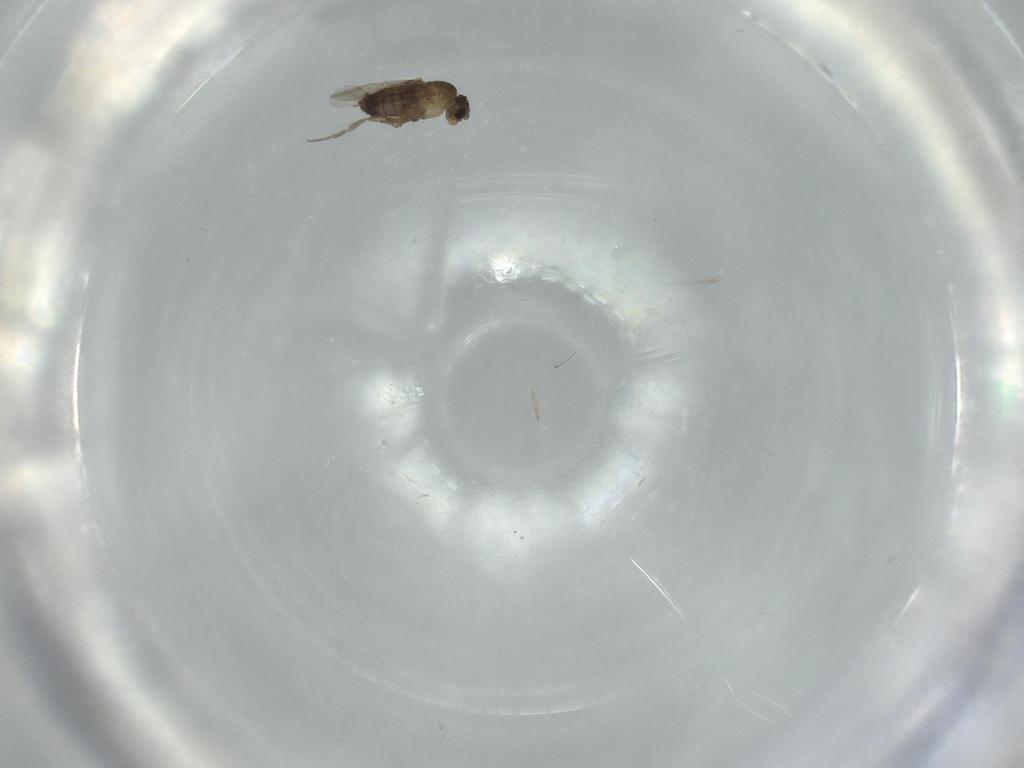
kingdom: Animalia
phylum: Arthropoda
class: Insecta
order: Diptera
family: Phoridae
